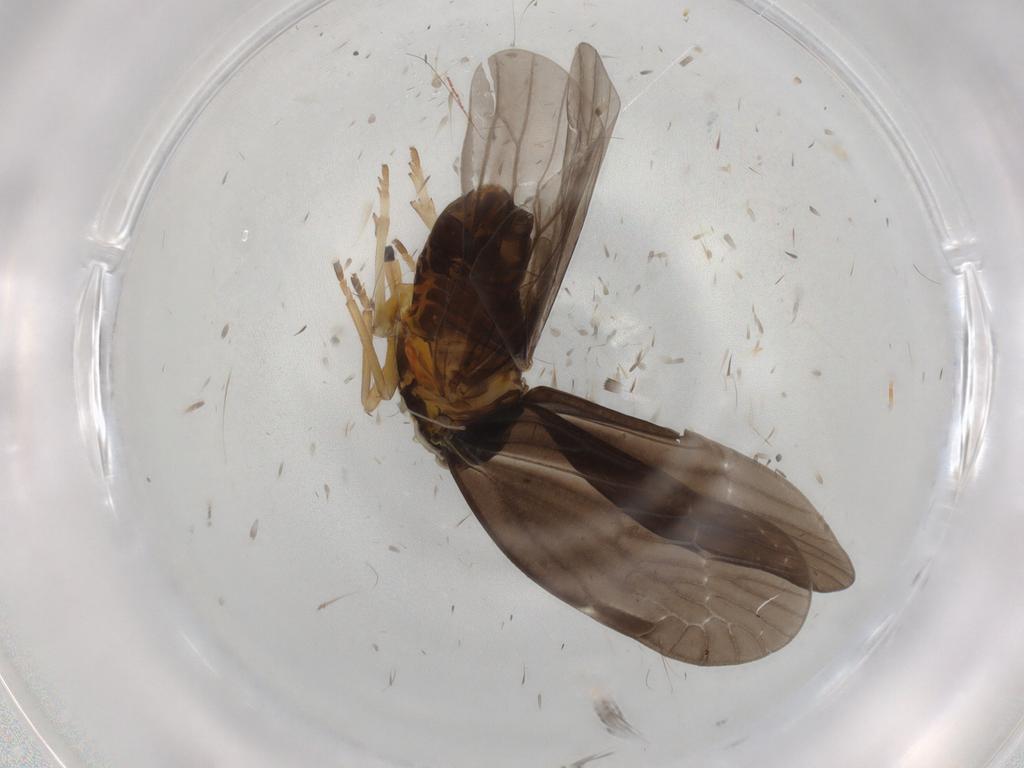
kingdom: Animalia
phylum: Arthropoda
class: Insecta
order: Hemiptera
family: Derbidae
